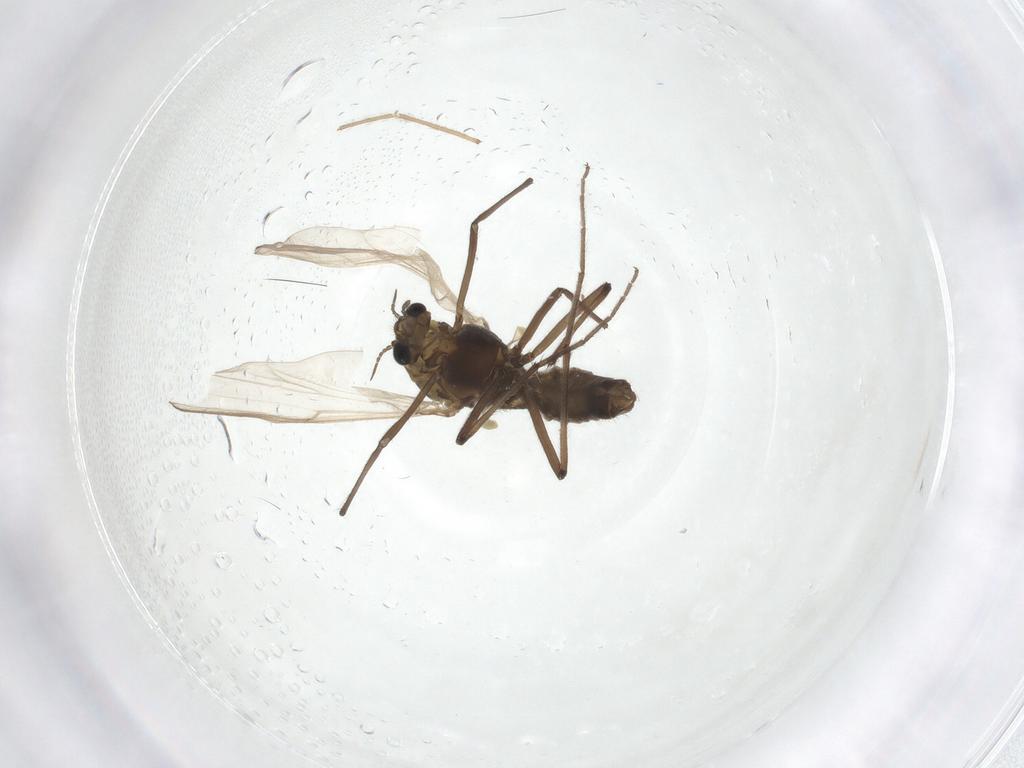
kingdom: Animalia
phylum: Arthropoda
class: Insecta
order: Diptera
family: Chironomidae
